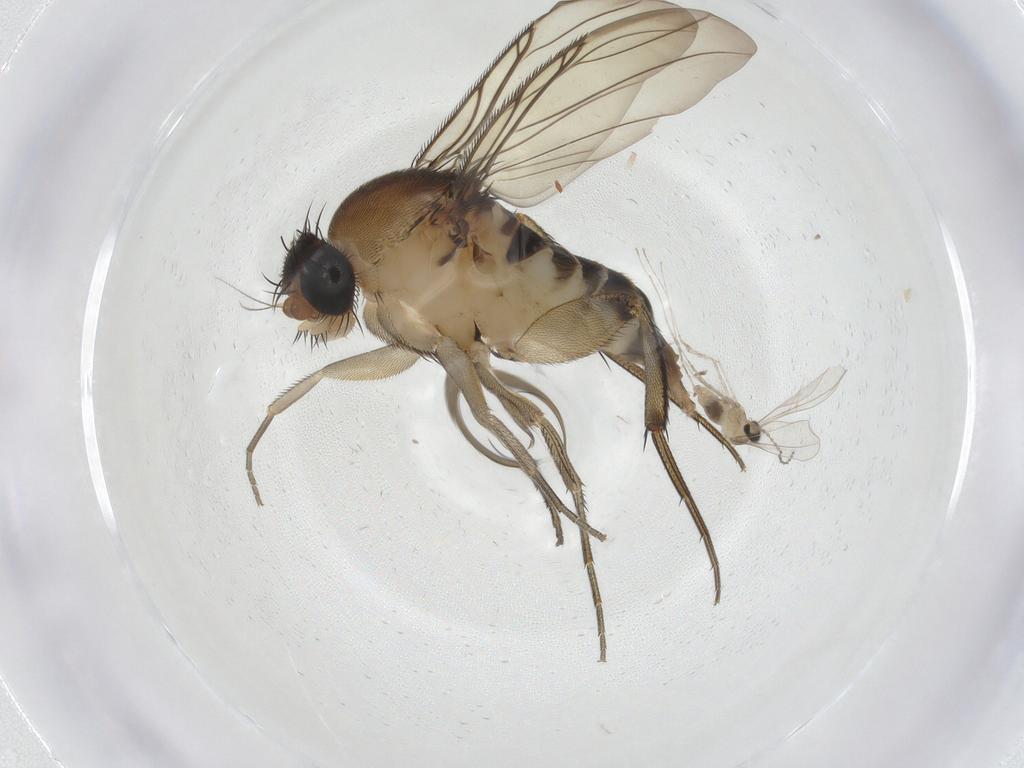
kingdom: Animalia
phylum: Arthropoda
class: Insecta
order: Diptera
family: Phoridae
